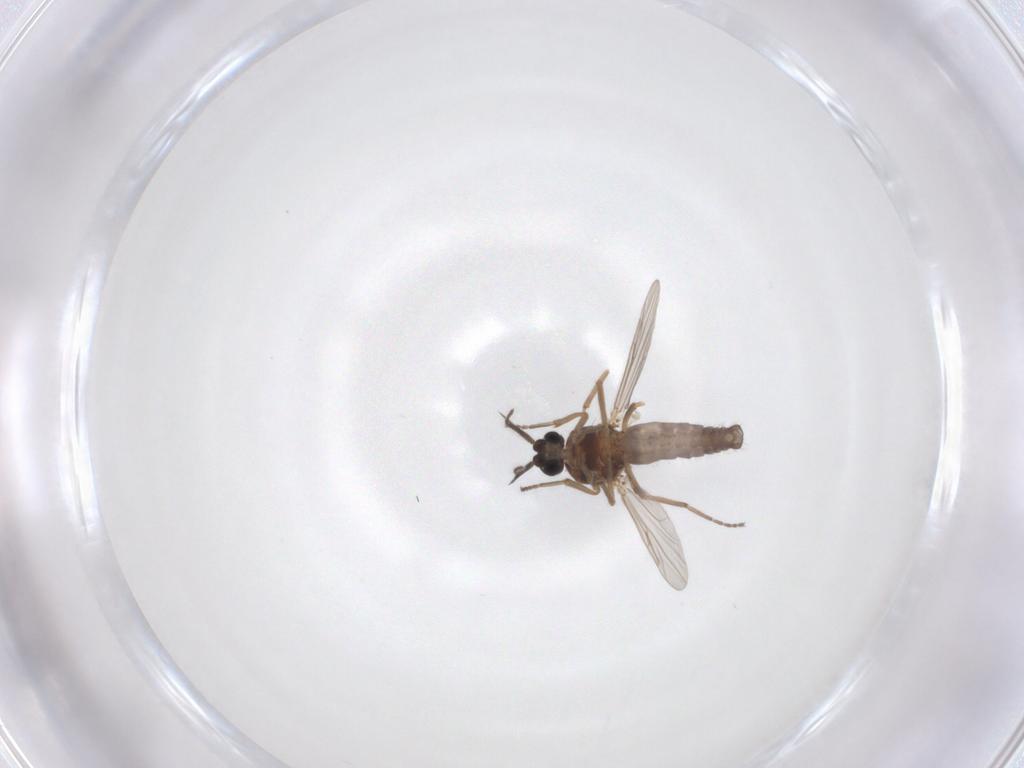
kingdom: Animalia
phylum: Arthropoda
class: Insecta
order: Diptera
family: Ceratopogonidae
